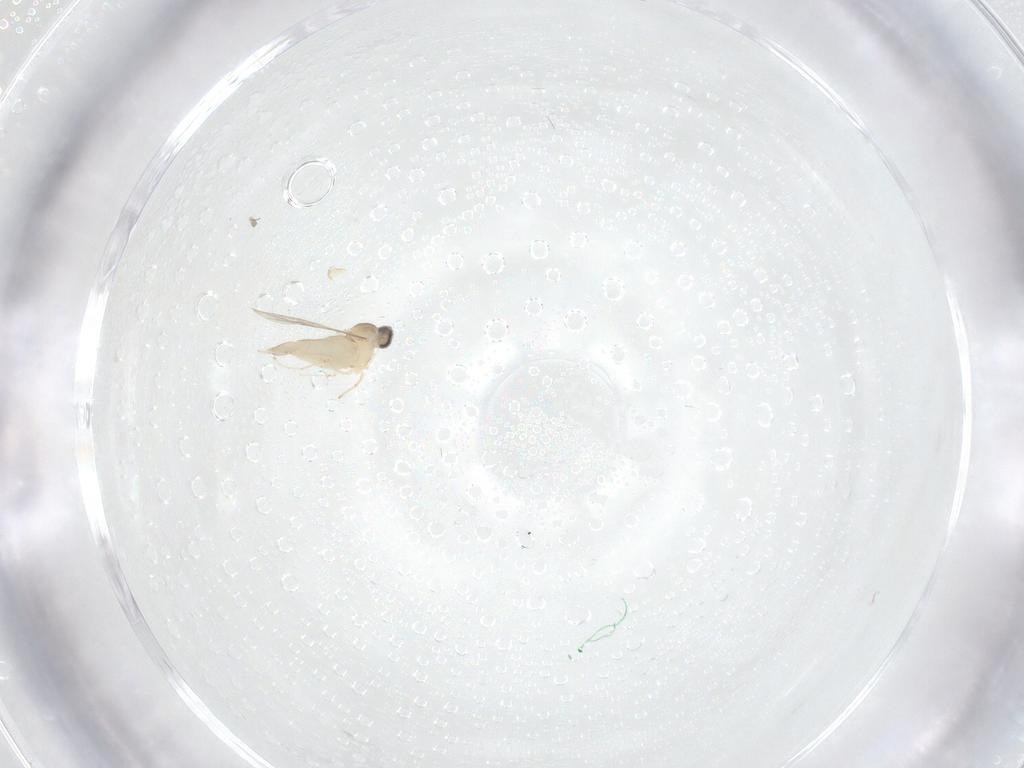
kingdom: Animalia
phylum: Arthropoda
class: Insecta
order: Diptera
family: Cecidomyiidae
